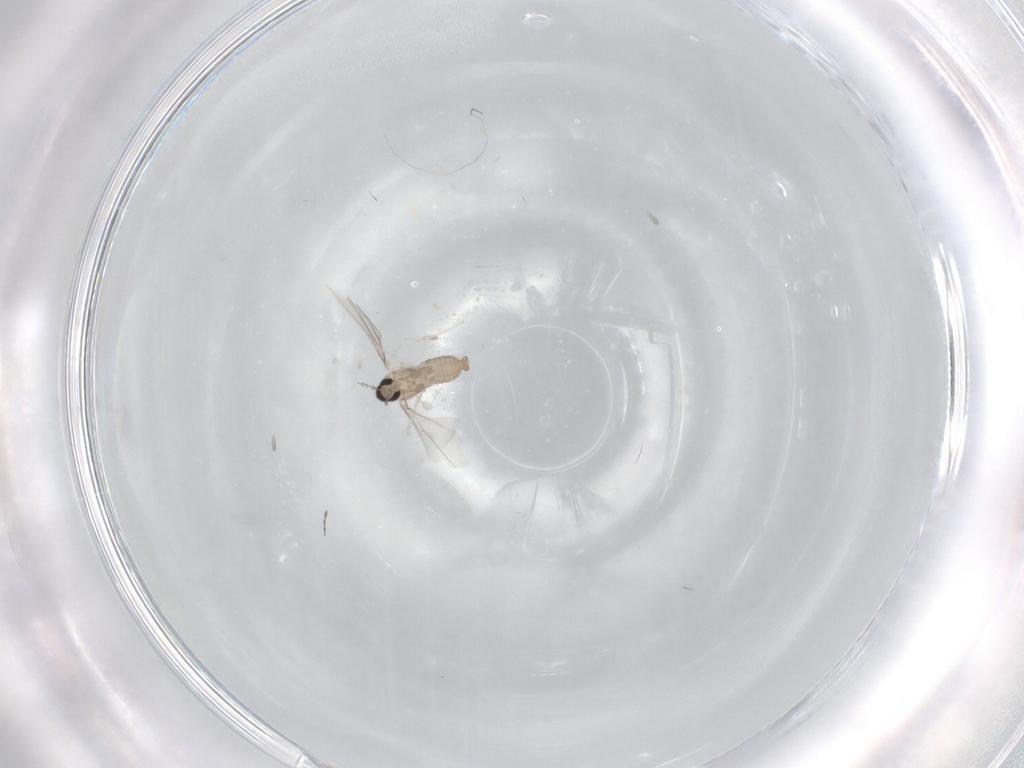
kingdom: Animalia
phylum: Arthropoda
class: Insecta
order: Diptera
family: Cecidomyiidae
